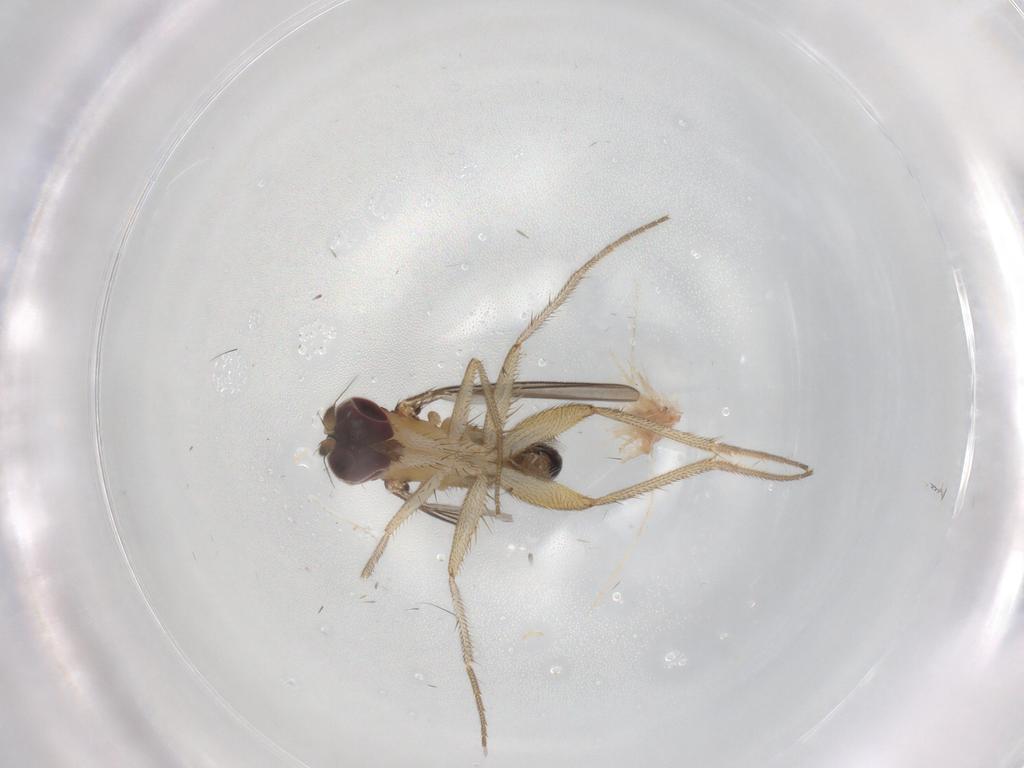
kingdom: Animalia
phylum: Arthropoda
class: Insecta
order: Diptera
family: Dolichopodidae
